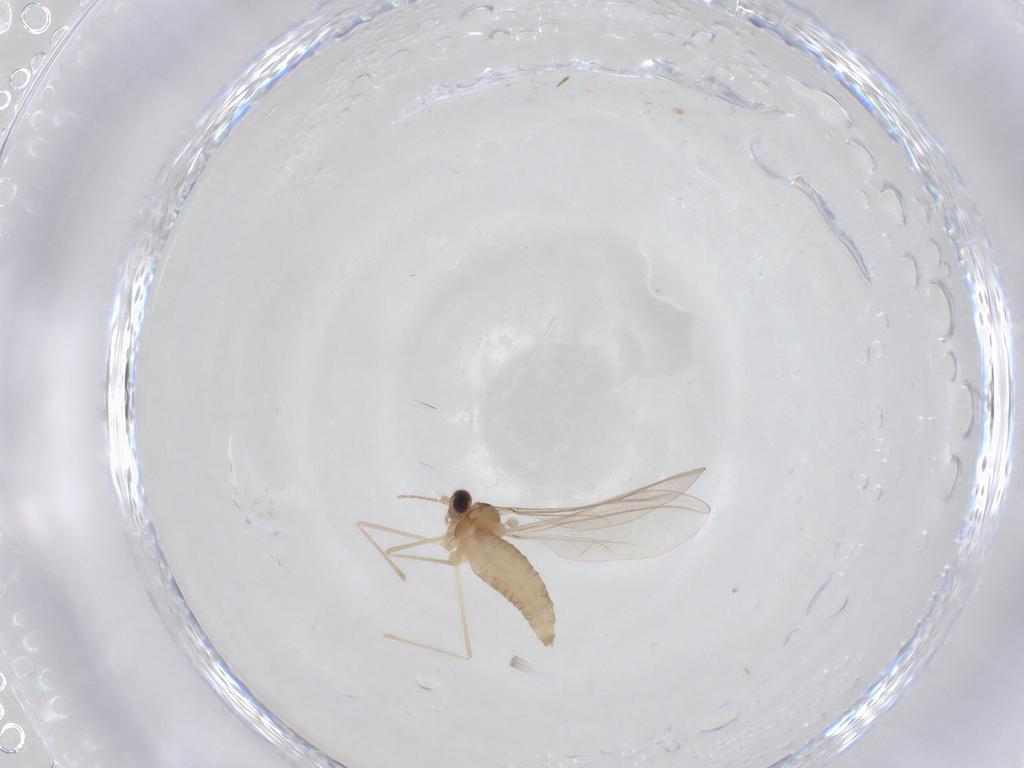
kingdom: Animalia
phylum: Arthropoda
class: Insecta
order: Diptera
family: Cecidomyiidae
